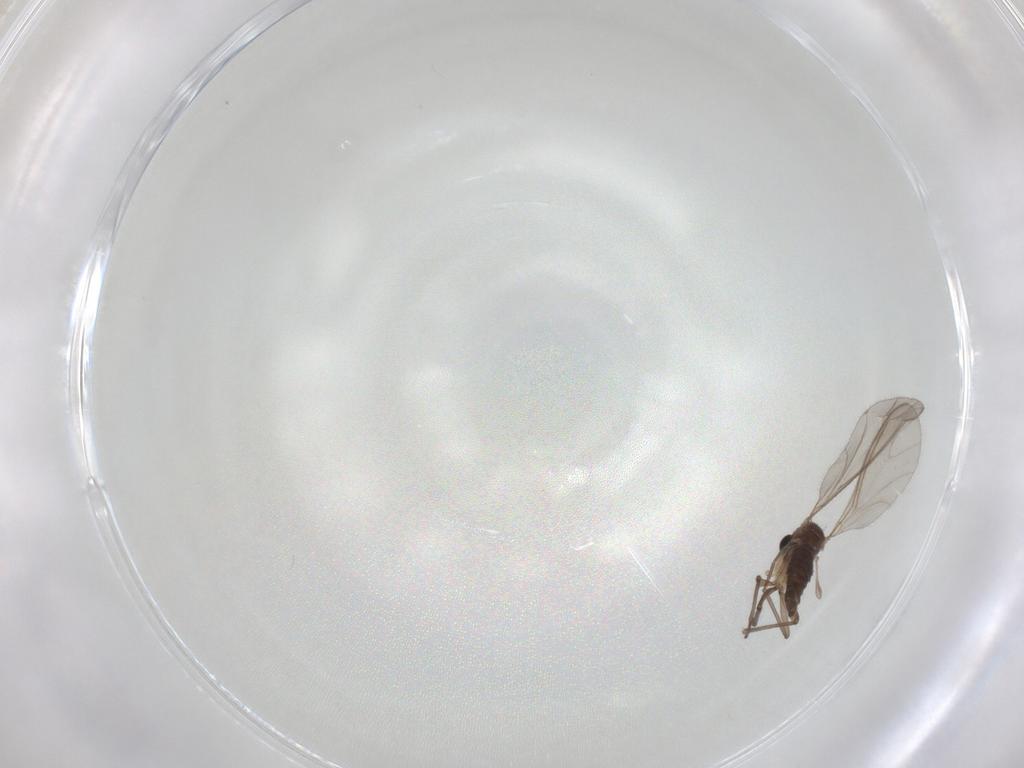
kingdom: Animalia
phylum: Arthropoda
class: Insecta
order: Diptera
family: Sciaridae
